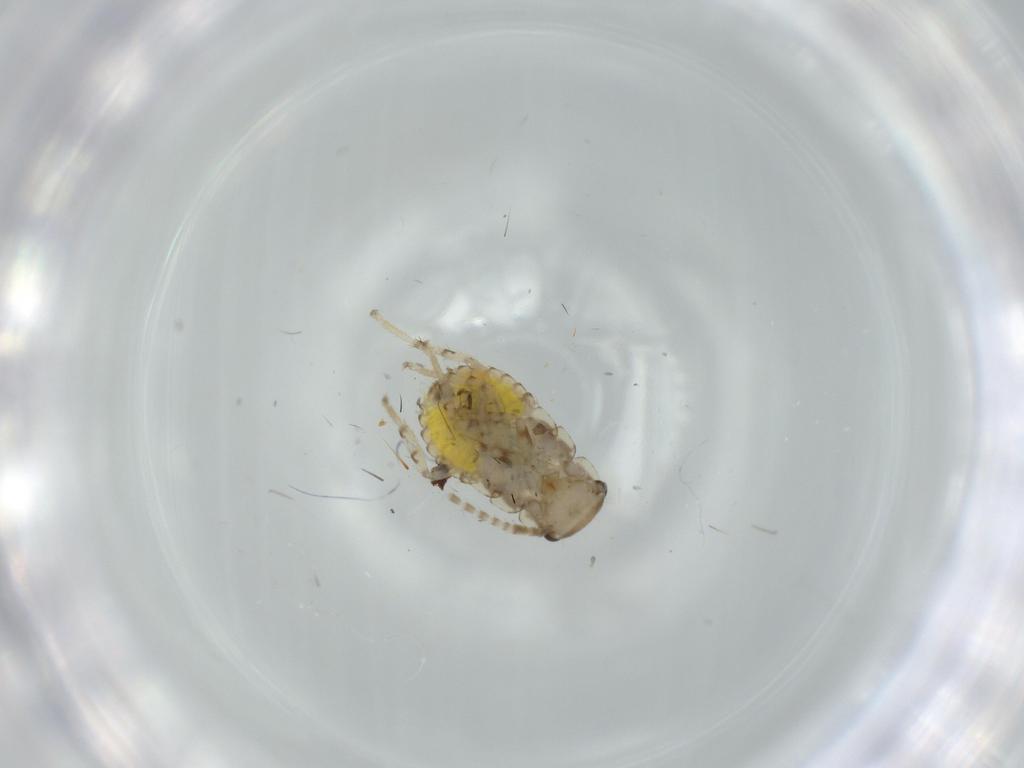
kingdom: Animalia
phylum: Arthropoda
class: Insecta
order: Blattodea
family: Ectobiidae
